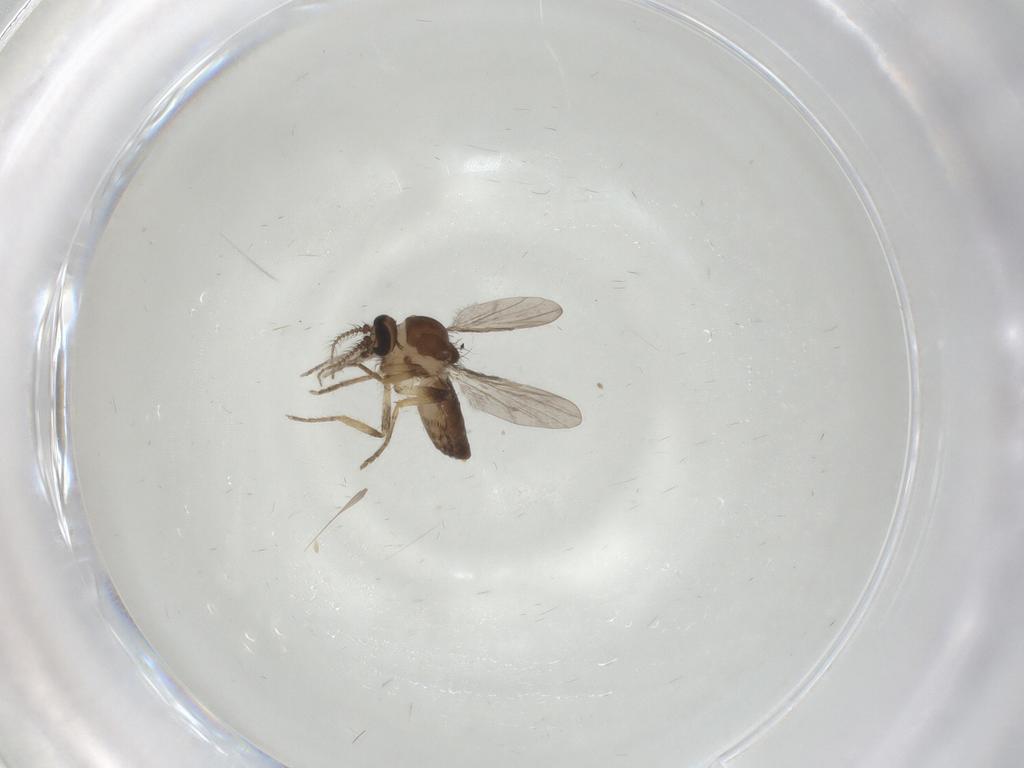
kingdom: Animalia
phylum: Arthropoda
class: Insecta
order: Diptera
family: Ceratopogonidae
